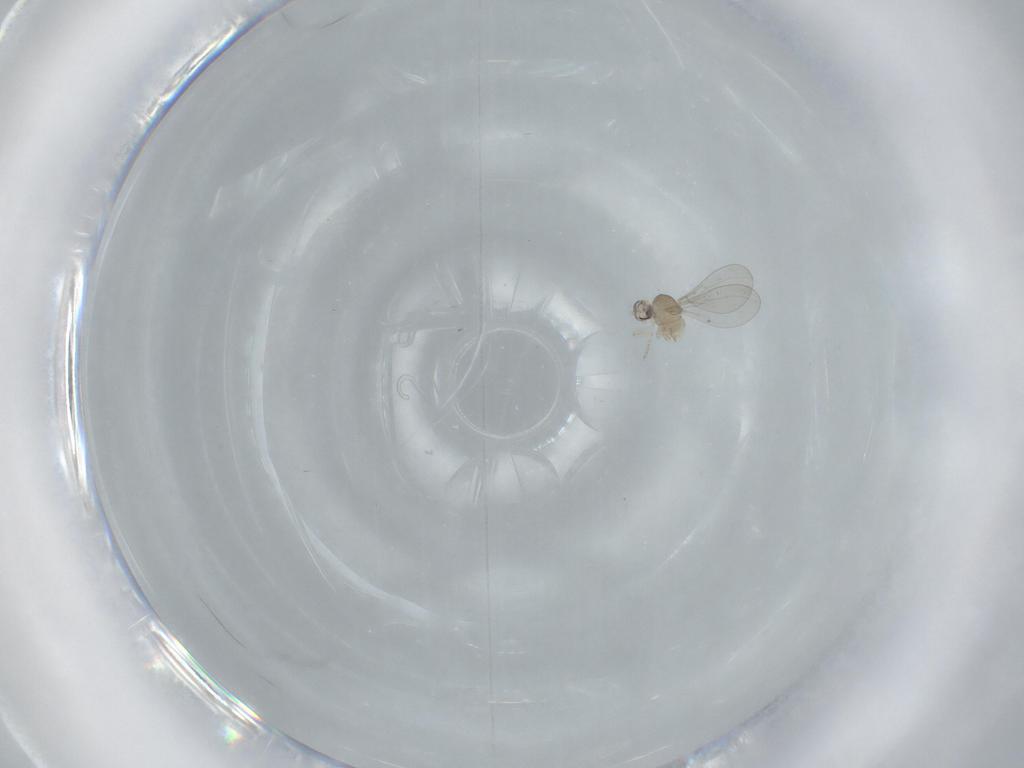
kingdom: Animalia
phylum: Arthropoda
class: Insecta
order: Diptera
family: Cecidomyiidae
